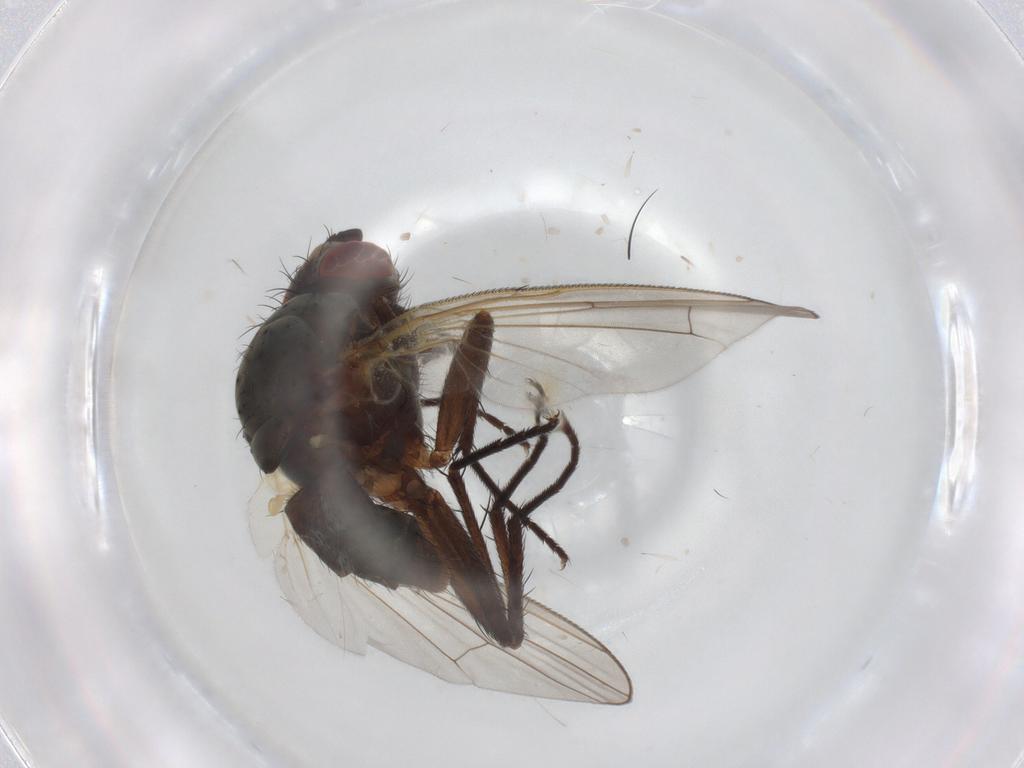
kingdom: Animalia
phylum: Arthropoda
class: Insecta
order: Diptera
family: Anthomyiidae
